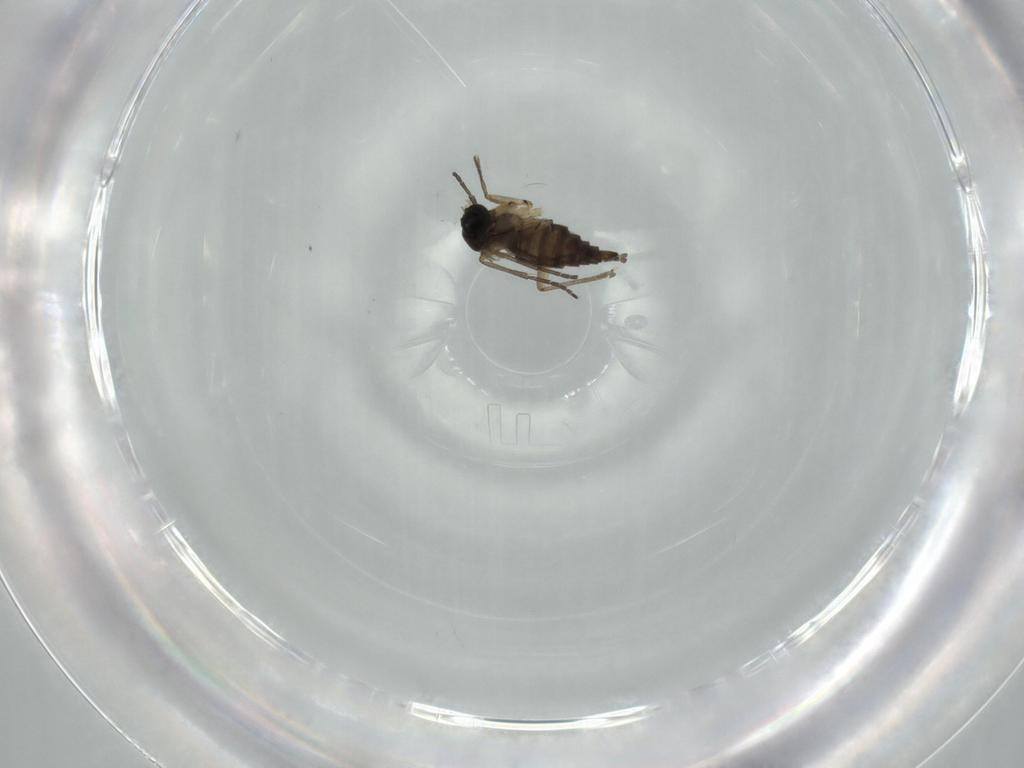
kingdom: Animalia
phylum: Arthropoda
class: Insecta
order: Diptera
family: Sciaridae
